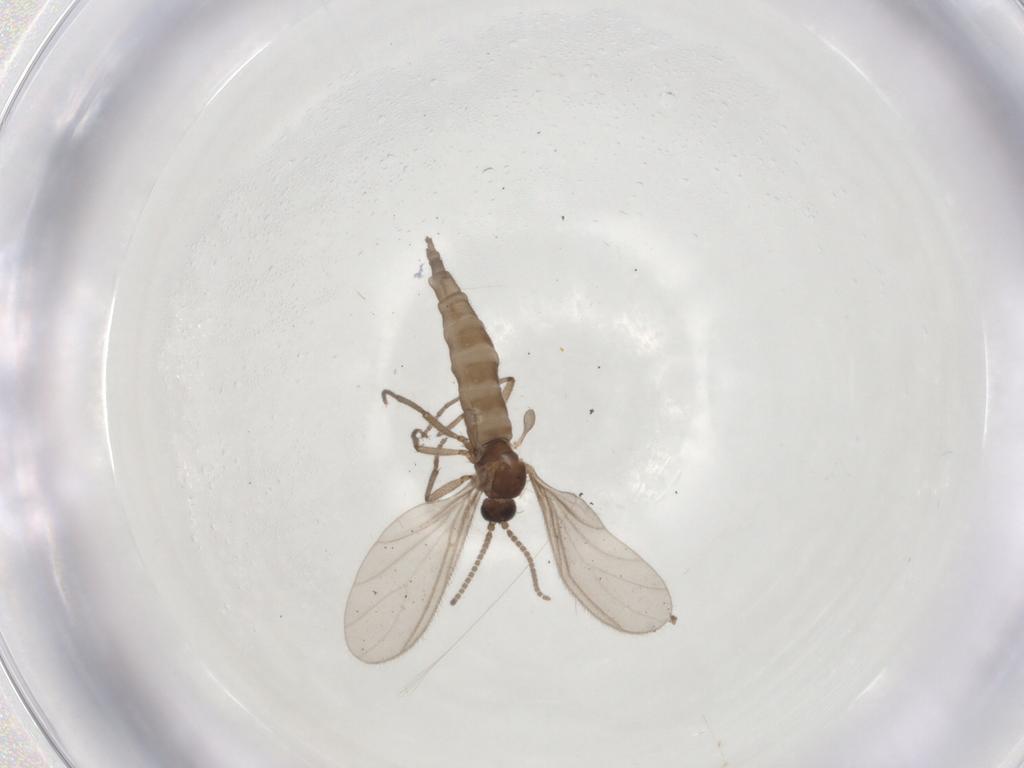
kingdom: Animalia
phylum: Arthropoda
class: Insecta
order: Diptera
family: Sciaridae
